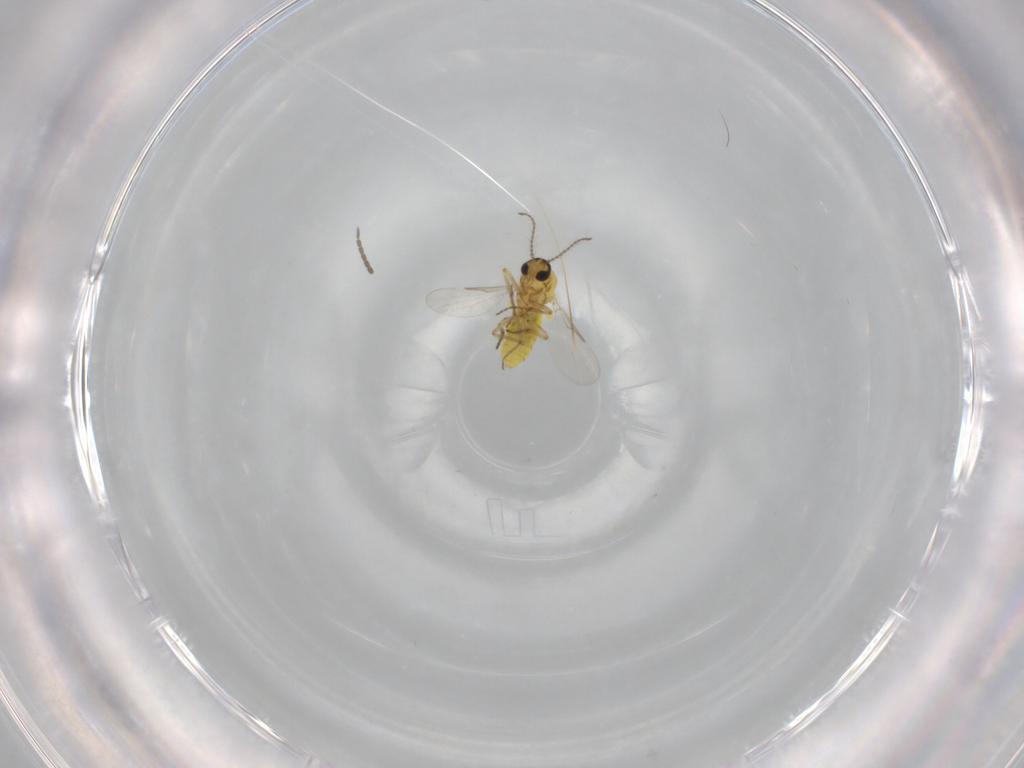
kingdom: Animalia
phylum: Arthropoda
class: Insecta
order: Diptera
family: Ceratopogonidae
